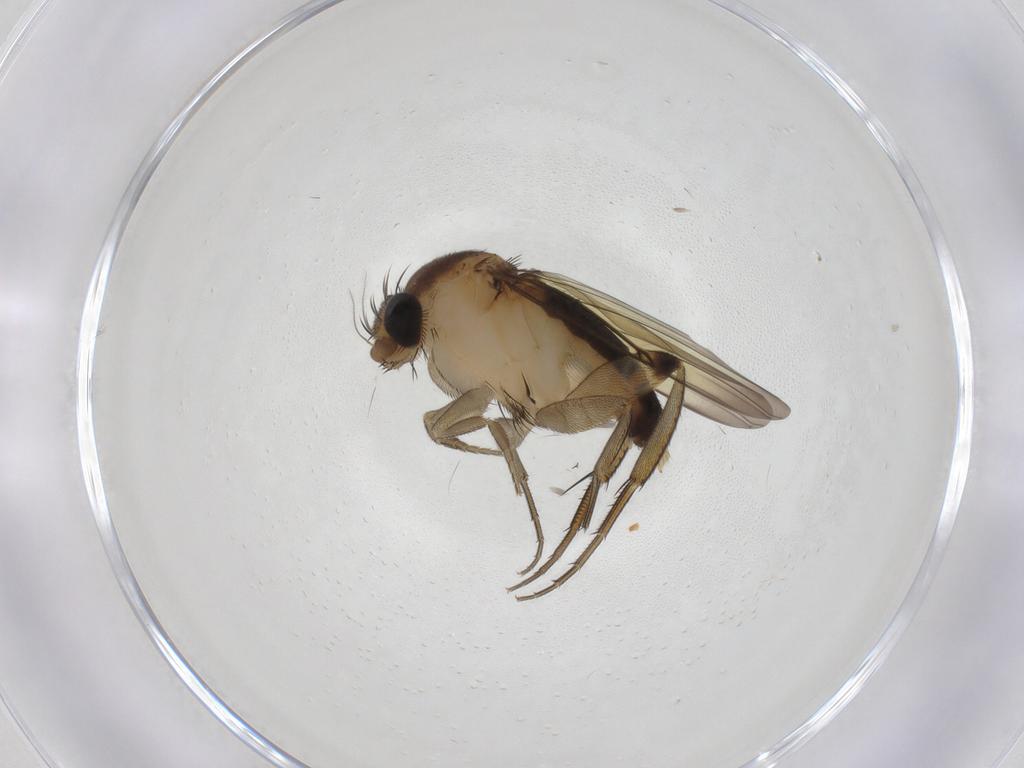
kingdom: Animalia
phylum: Arthropoda
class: Insecta
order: Diptera
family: Phoridae
